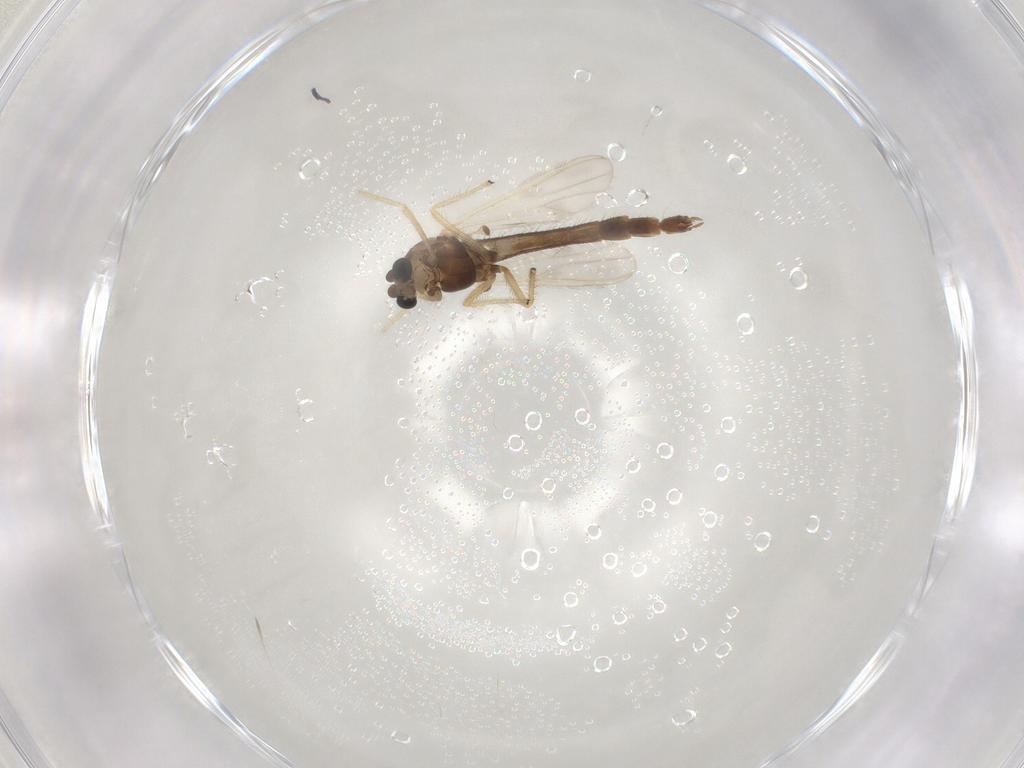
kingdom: Animalia
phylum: Arthropoda
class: Insecta
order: Diptera
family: Chironomidae
